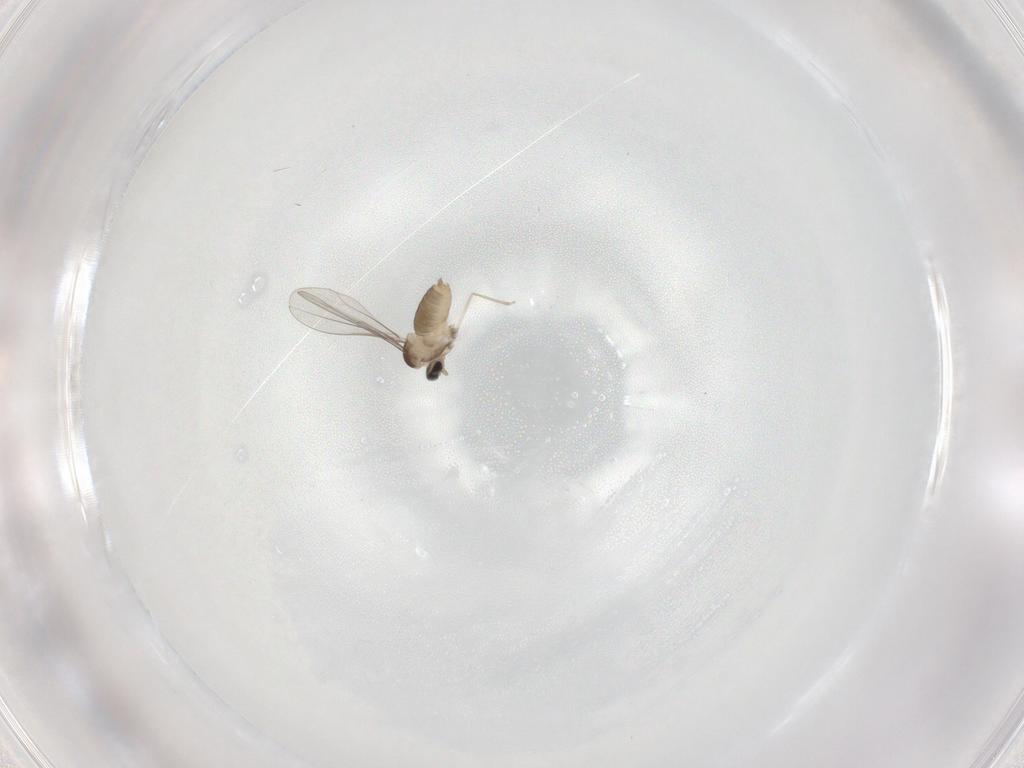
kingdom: Animalia
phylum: Arthropoda
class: Insecta
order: Diptera
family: Cecidomyiidae
